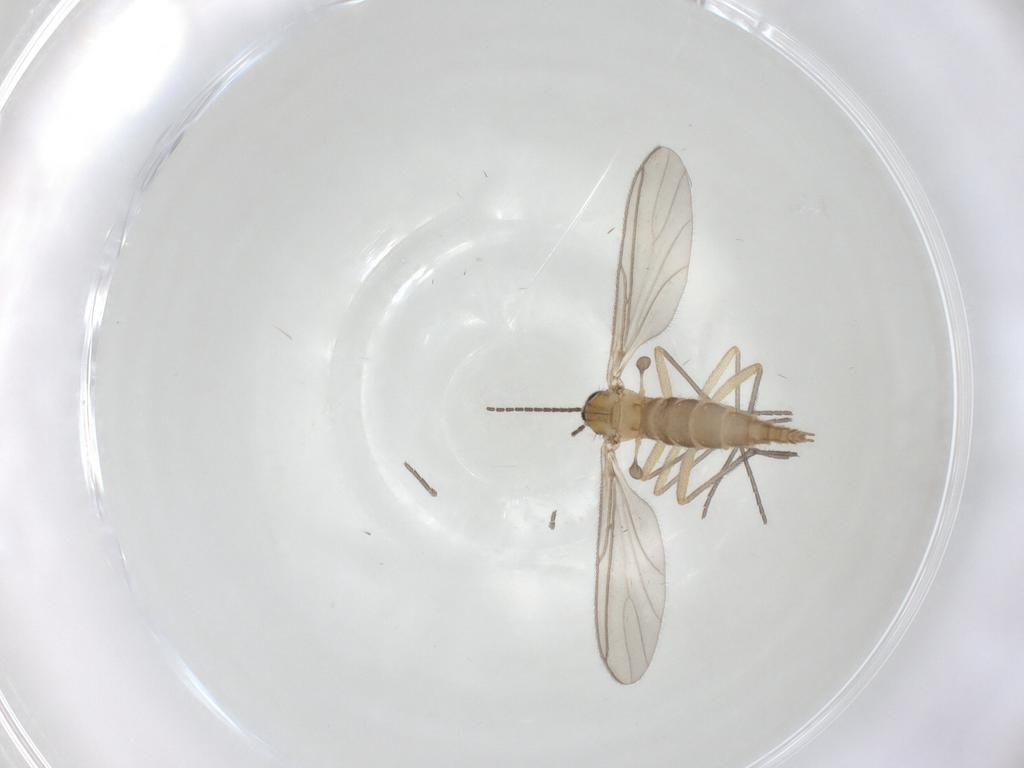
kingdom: Animalia
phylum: Arthropoda
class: Insecta
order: Diptera
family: Sciaridae
